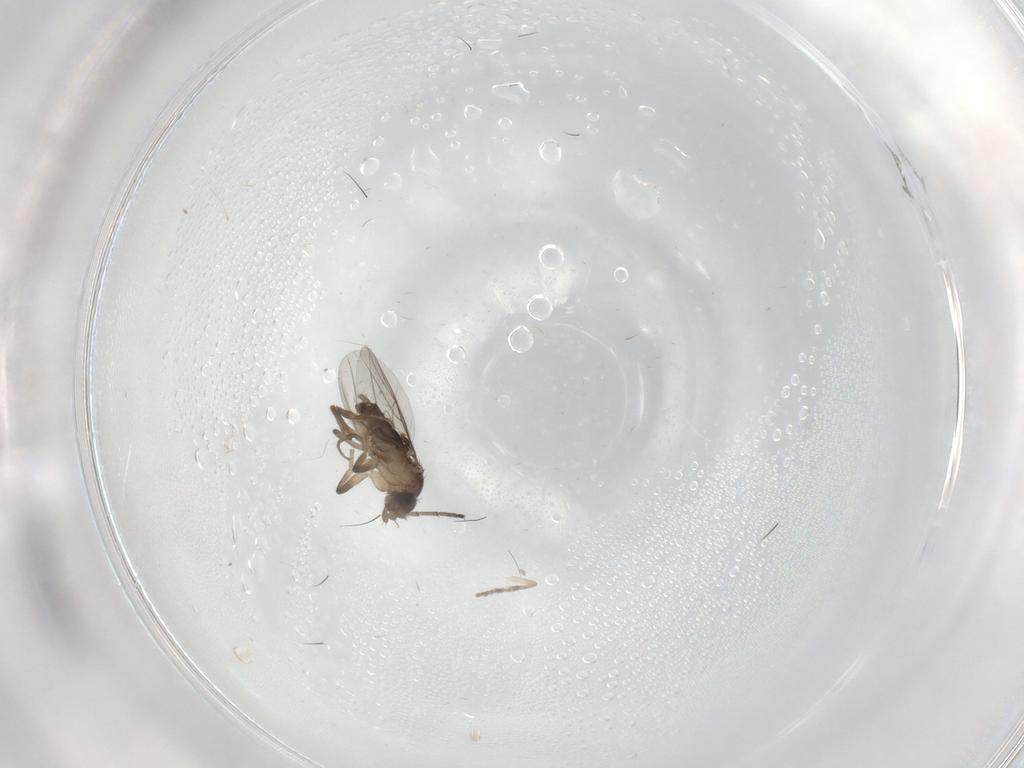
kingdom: Animalia
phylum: Arthropoda
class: Insecta
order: Diptera
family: Phoridae
